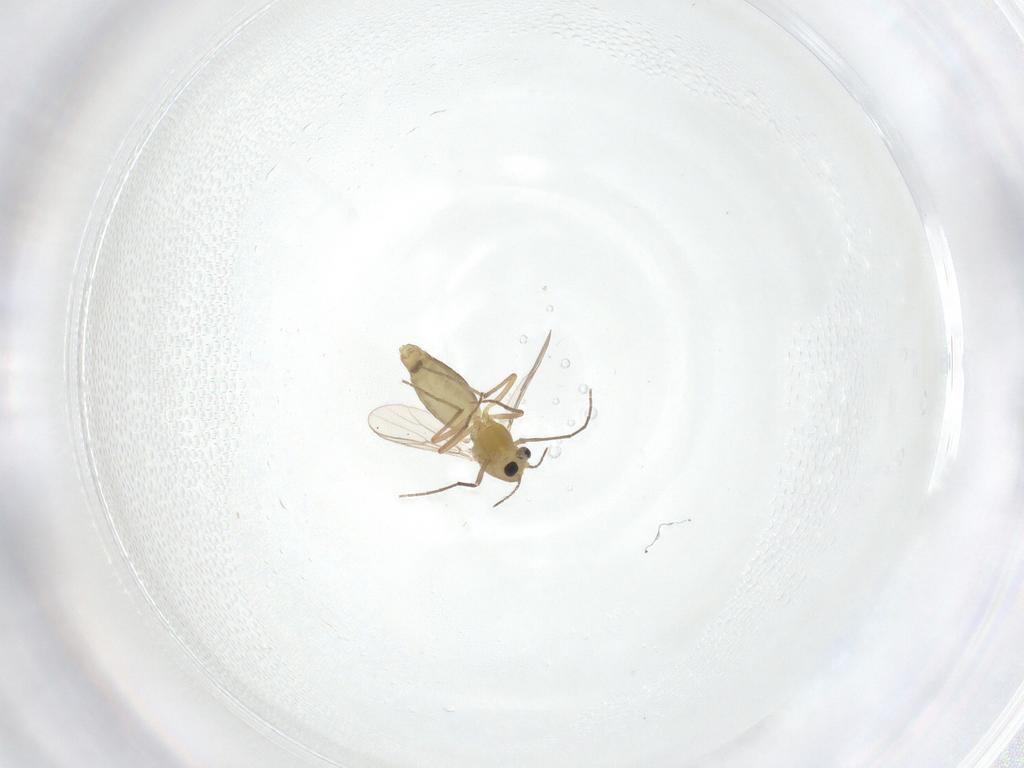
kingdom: Animalia
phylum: Arthropoda
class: Insecta
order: Diptera
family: Chironomidae
